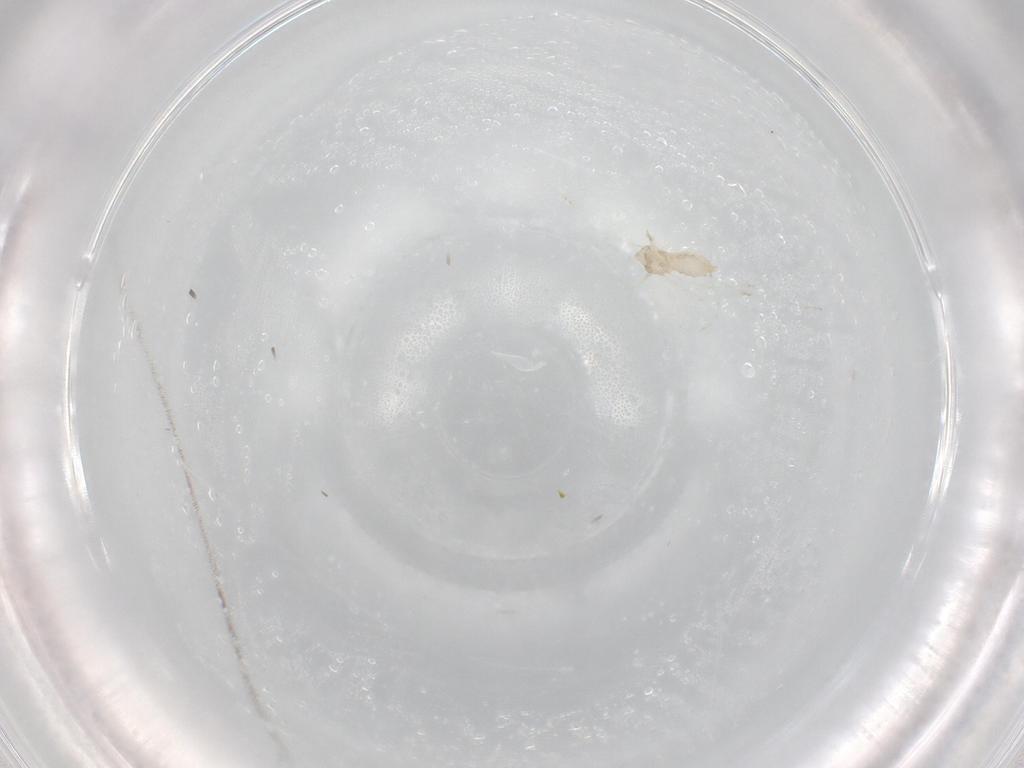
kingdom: Animalia
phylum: Arthropoda
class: Insecta
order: Diptera
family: Cecidomyiidae
